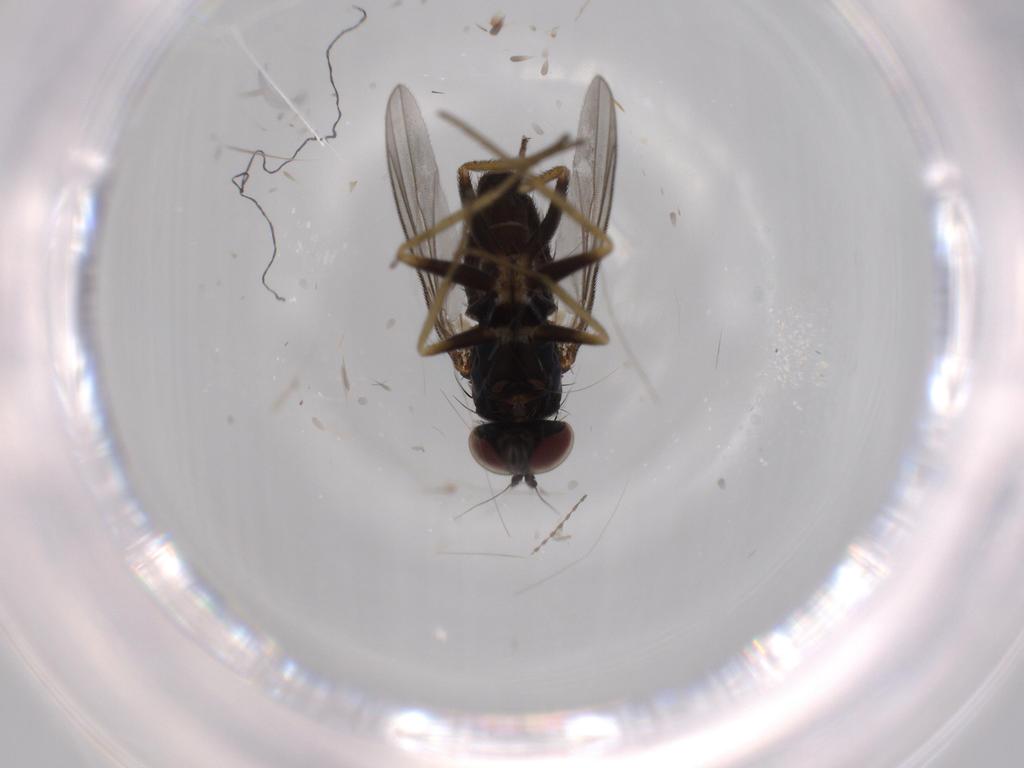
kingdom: Animalia
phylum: Arthropoda
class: Insecta
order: Diptera
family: Dolichopodidae
